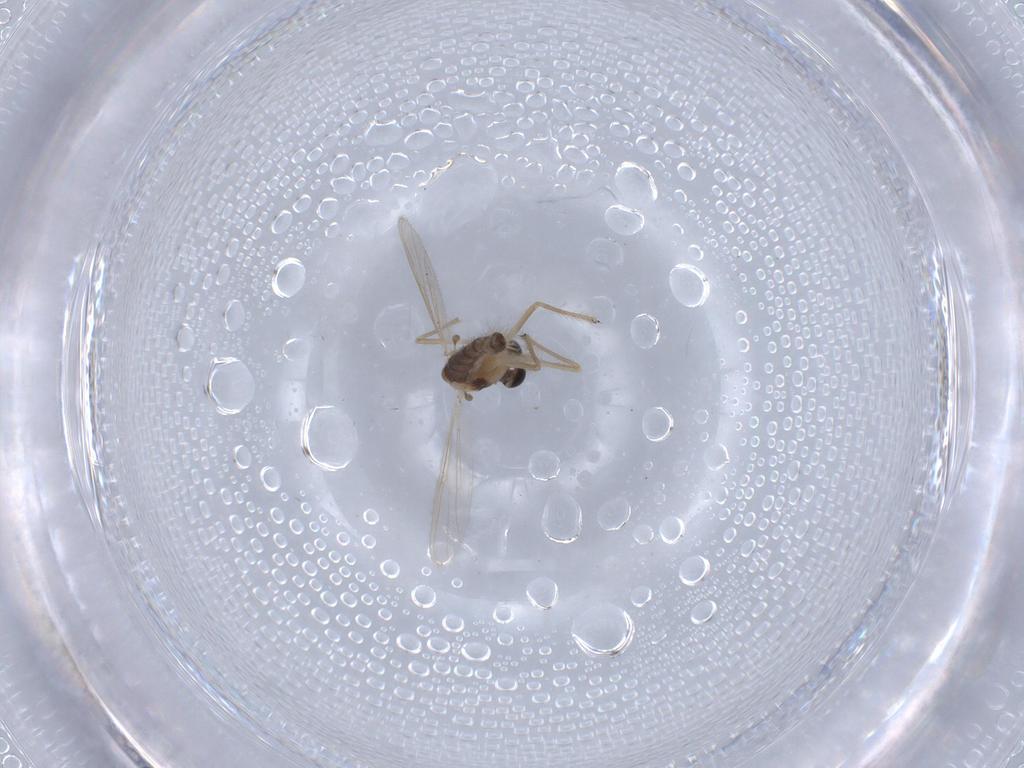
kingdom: Animalia
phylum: Arthropoda
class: Insecta
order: Diptera
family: Chironomidae
